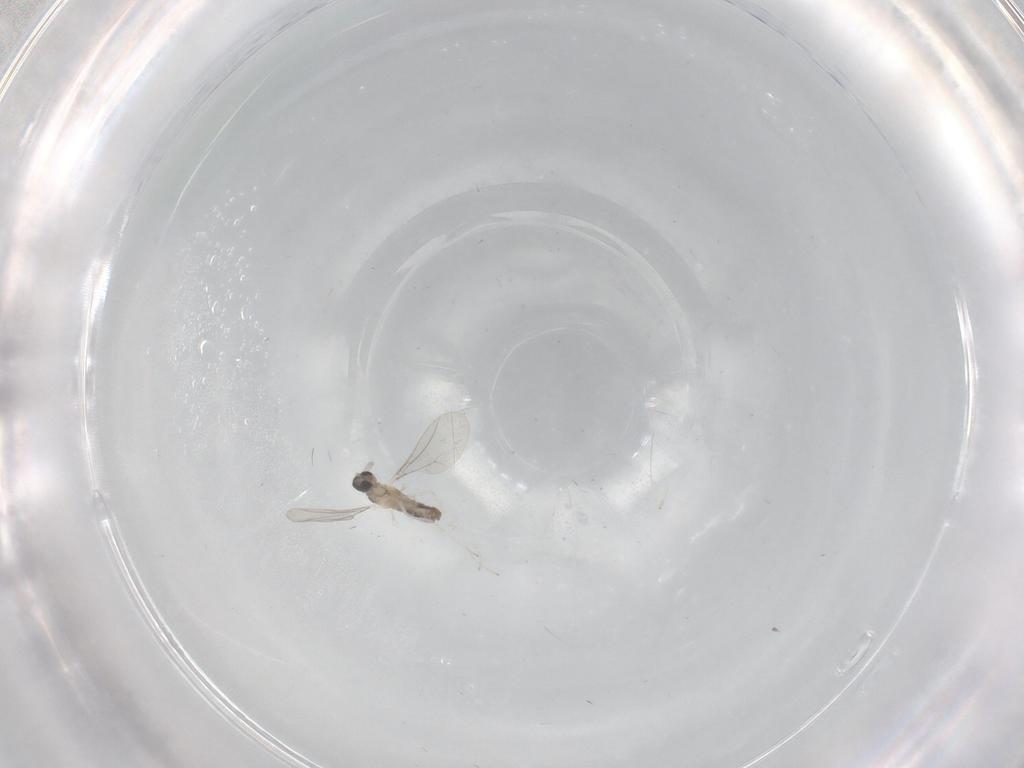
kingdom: Animalia
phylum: Arthropoda
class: Insecta
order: Diptera
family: Cecidomyiidae
